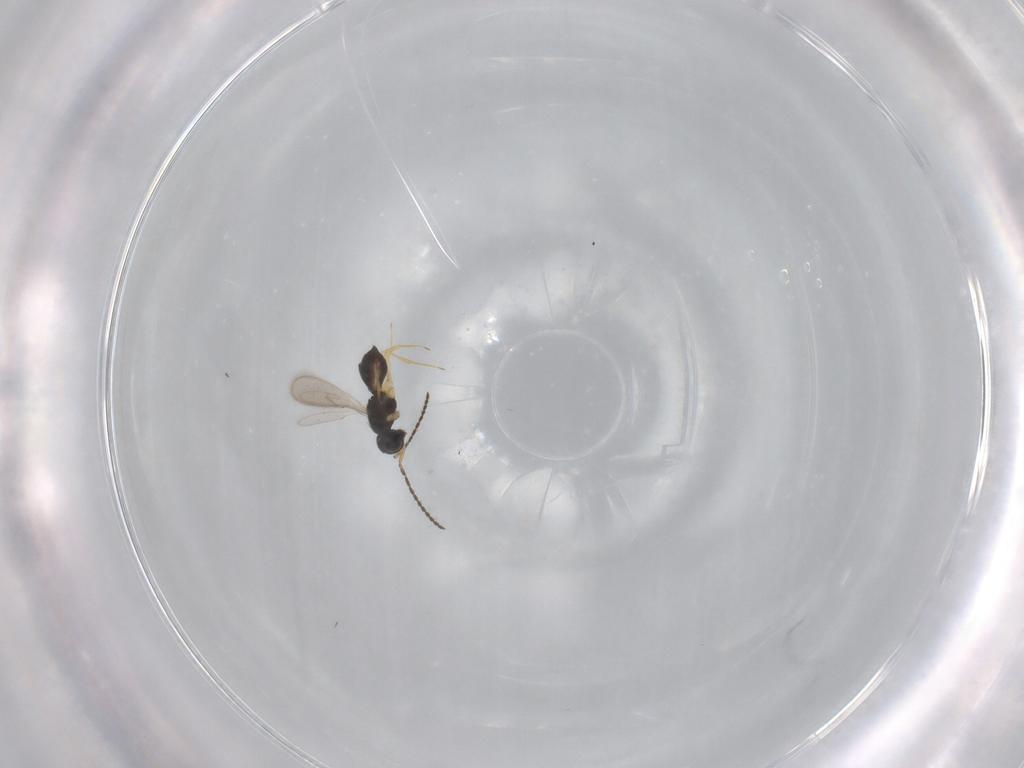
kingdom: Animalia
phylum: Arthropoda
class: Insecta
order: Hymenoptera
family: Scelionidae
